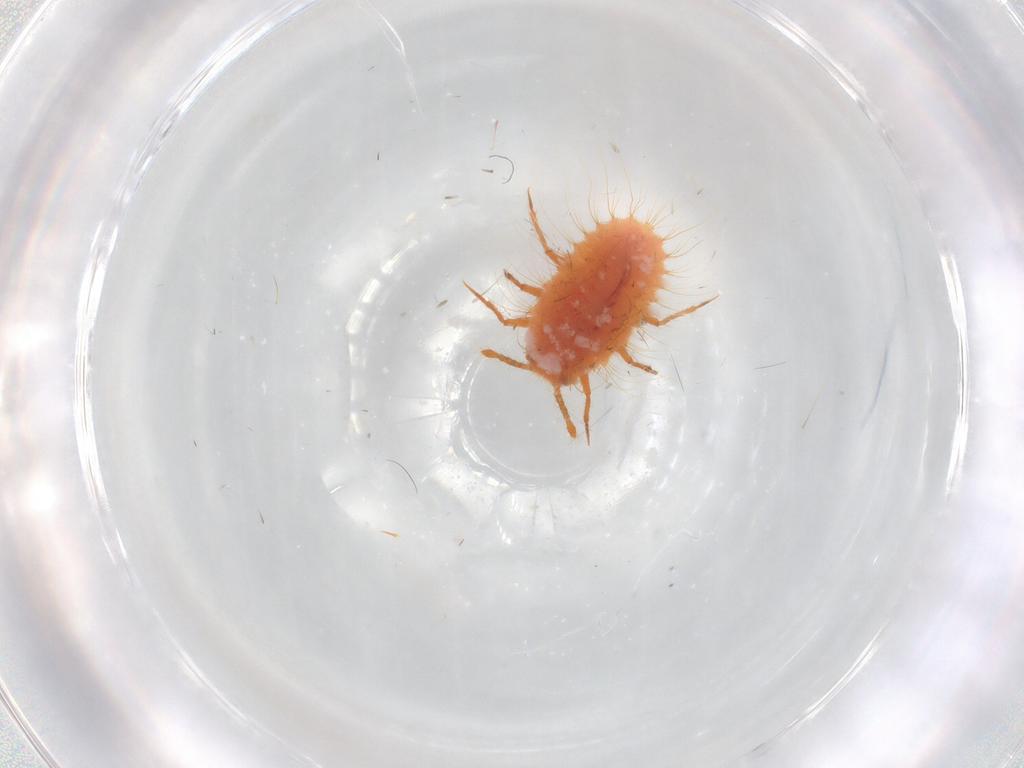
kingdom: Animalia
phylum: Arthropoda
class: Insecta
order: Hemiptera
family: Coccoidea_incertae_sedis
